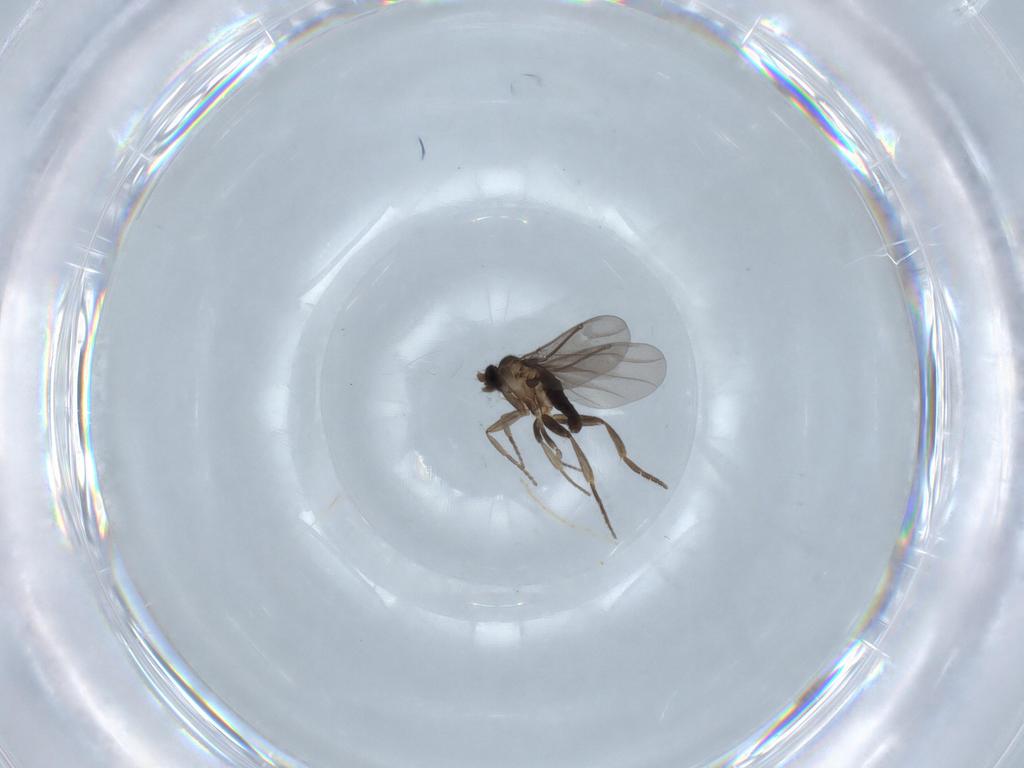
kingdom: Animalia
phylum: Arthropoda
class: Insecta
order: Diptera
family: Phoridae
